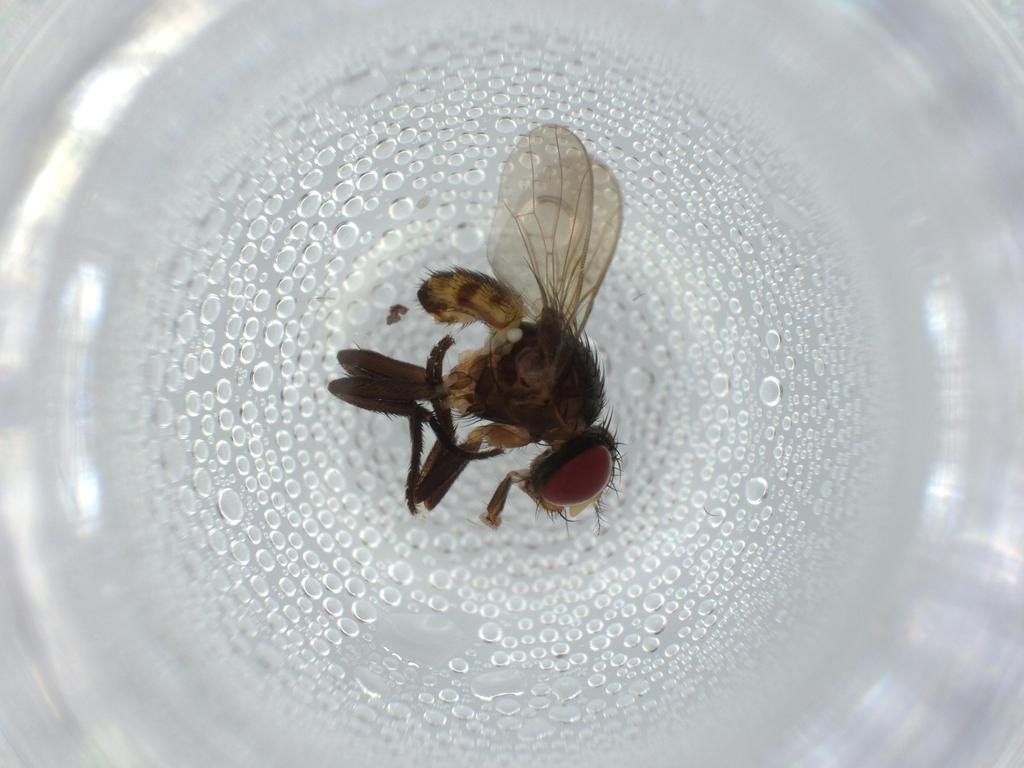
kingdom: Animalia
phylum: Arthropoda
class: Insecta
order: Diptera
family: Anthomyiidae
